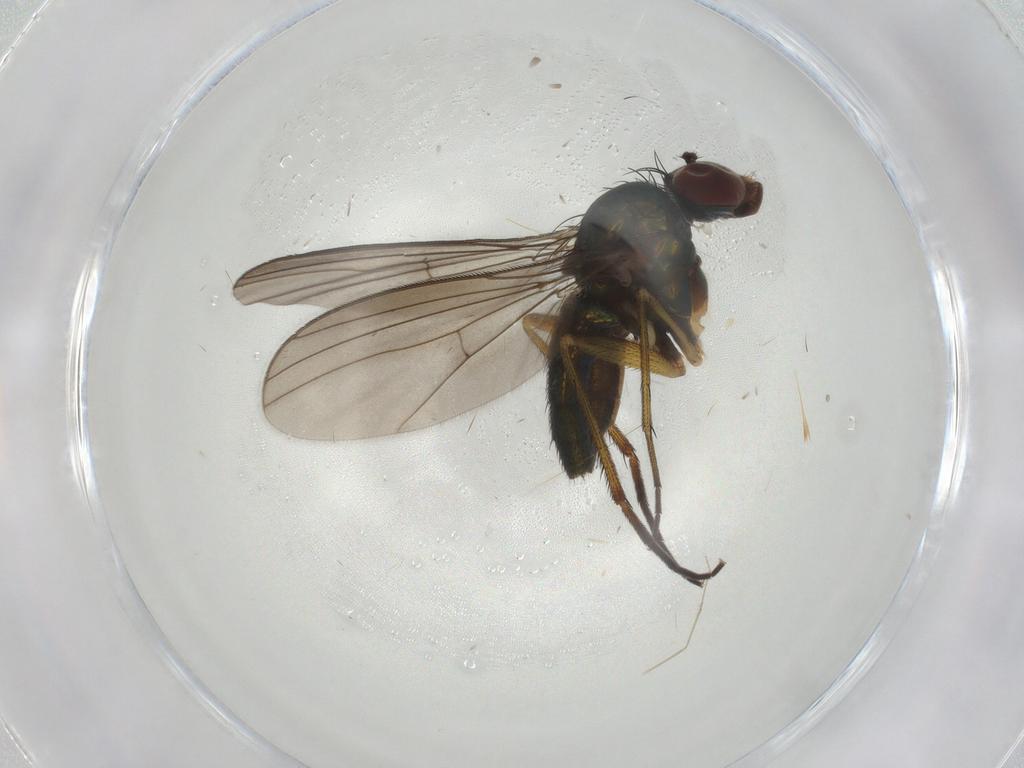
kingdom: Animalia
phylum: Arthropoda
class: Insecta
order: Diptera
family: Dolichopodidae
